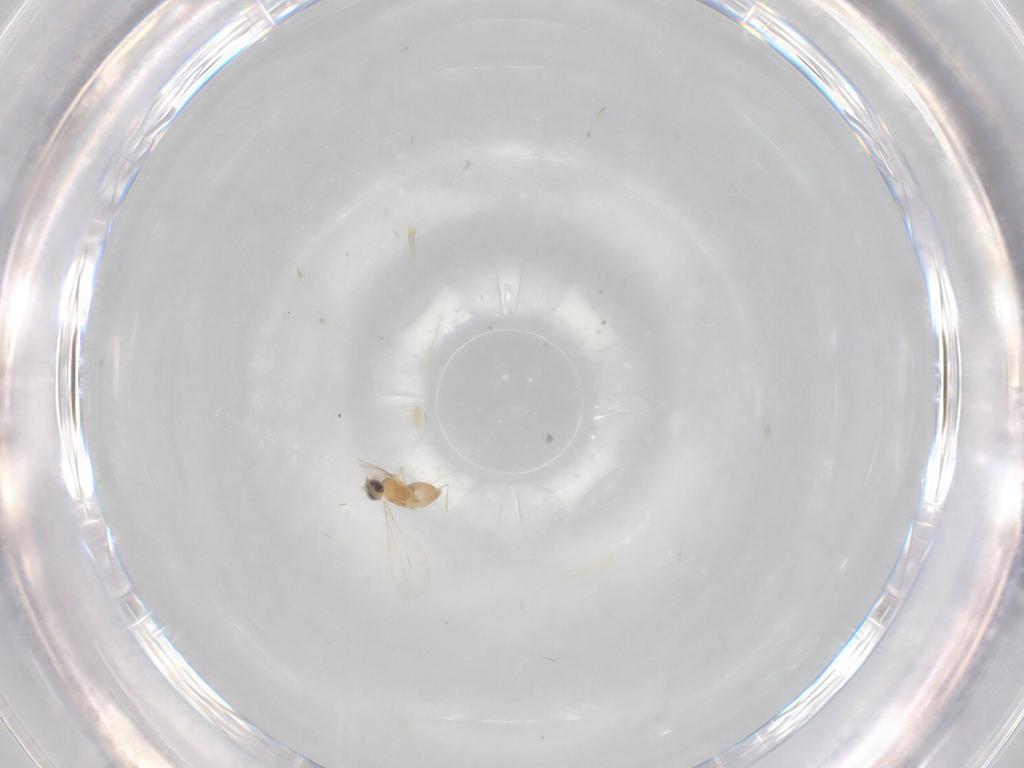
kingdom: Animalia
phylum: Arthropoda
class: Insecta
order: Diptera
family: Cecidomyiidae
